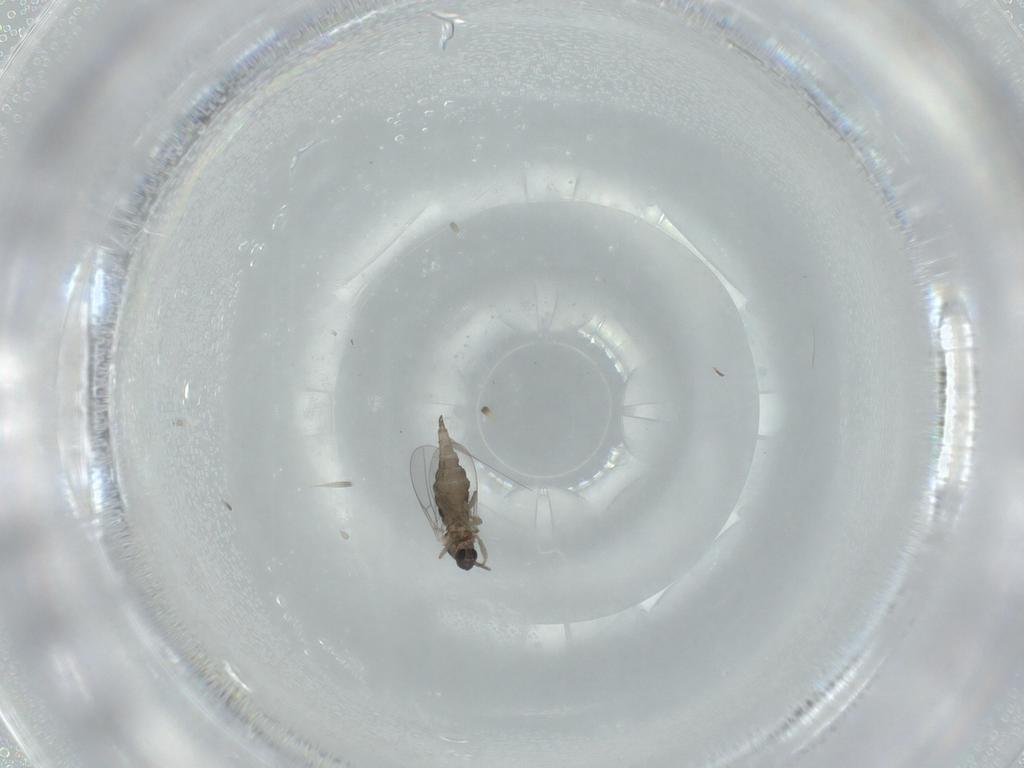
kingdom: Animalia
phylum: Arthropoda
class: Insecta
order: Diptera
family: Cecidomyiidae
